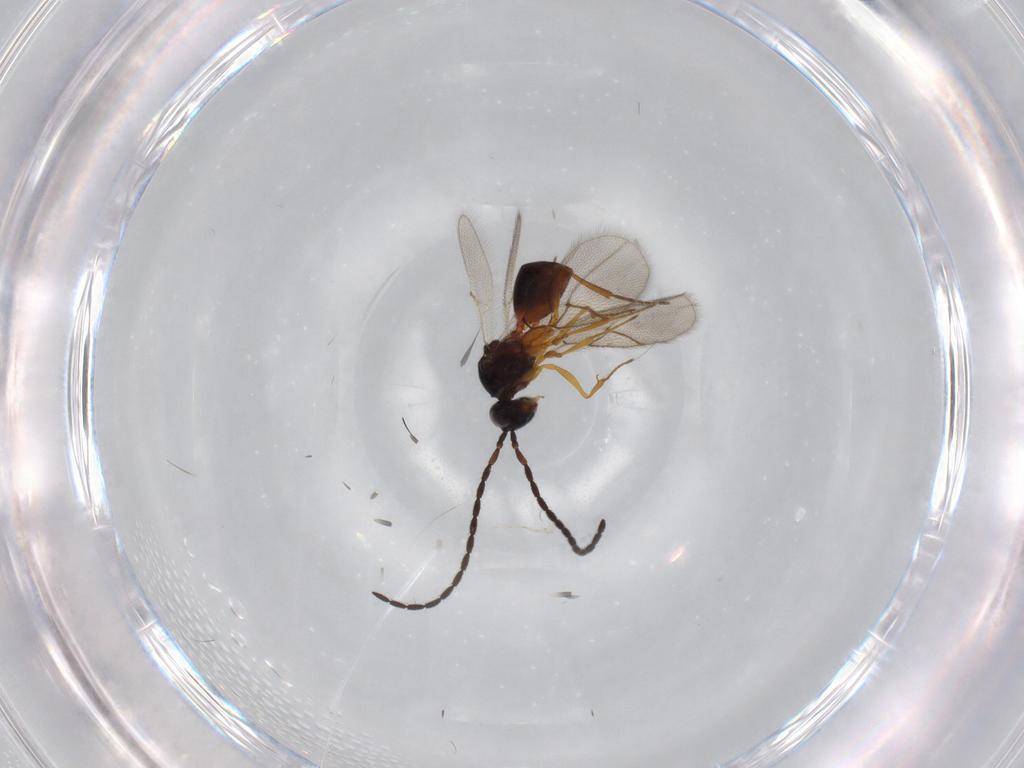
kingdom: Animalia
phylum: Arthropoda
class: Insecta
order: Hymenoptera
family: Figitidae
